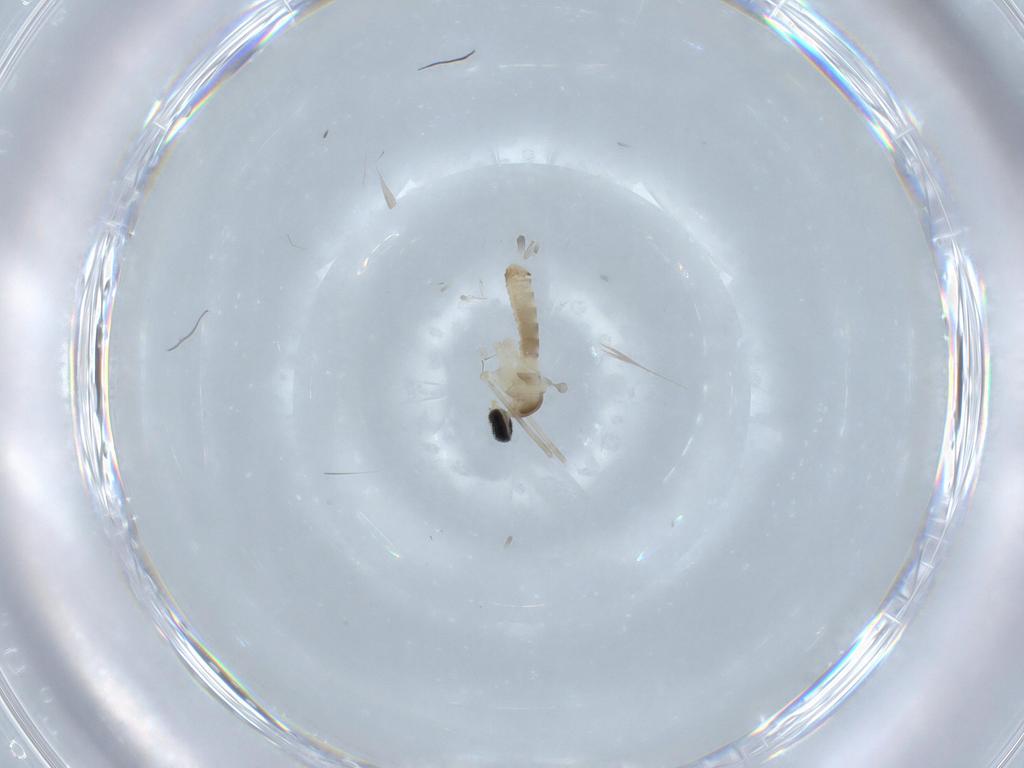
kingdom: Animalia
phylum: Arthropoda
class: Insecta
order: Diptera
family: Cecidomyiidae
